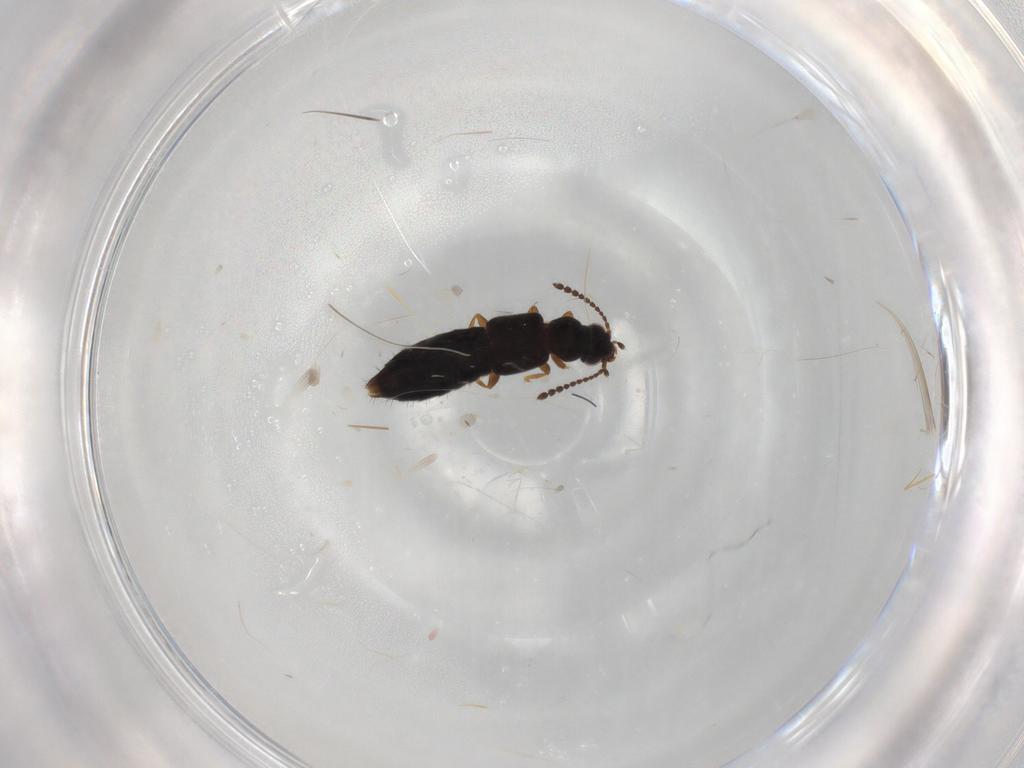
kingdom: Animalia
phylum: Arthropoda
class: Insecta
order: Coleoptera
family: Staphylinidae
